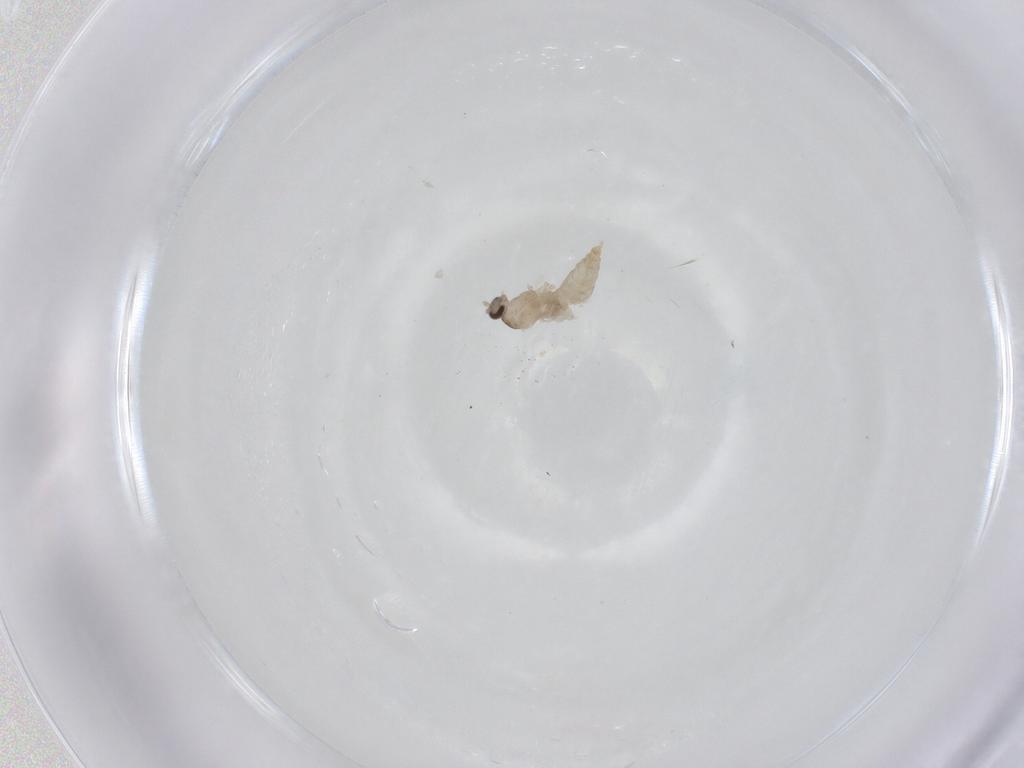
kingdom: Animalia
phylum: Arthropoda
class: Insecta
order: Diptera
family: Cecidomyiidae
